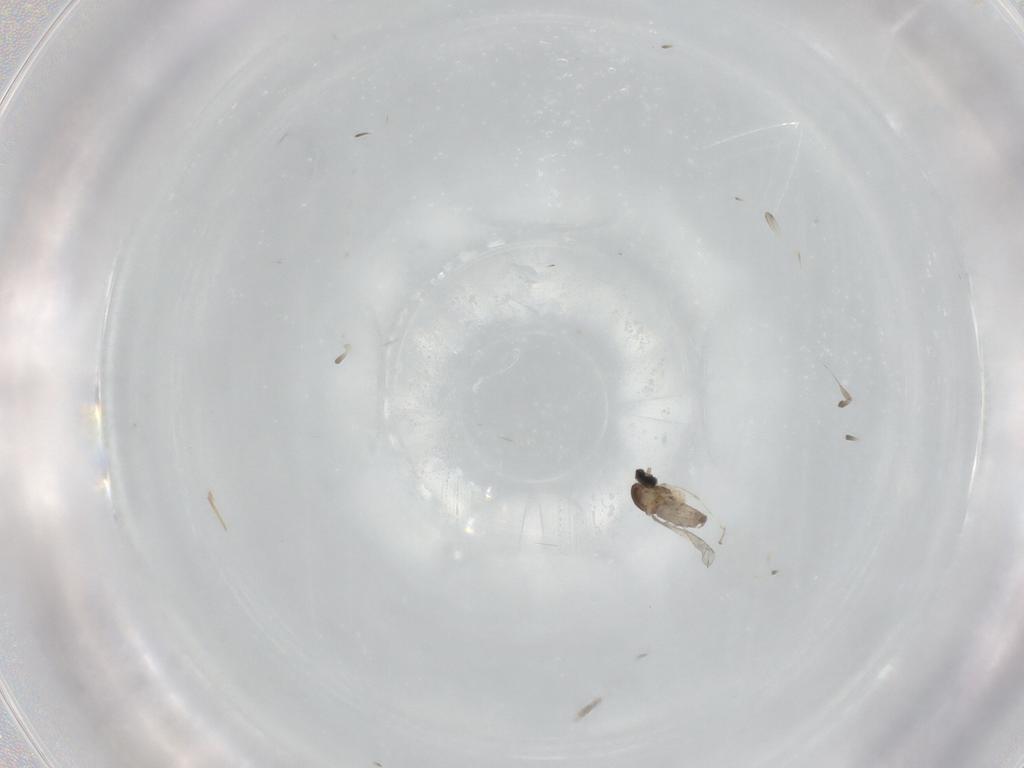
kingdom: Animalia
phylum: Arthropoda
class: Insecta
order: Diptera
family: Cecidomyiidae
